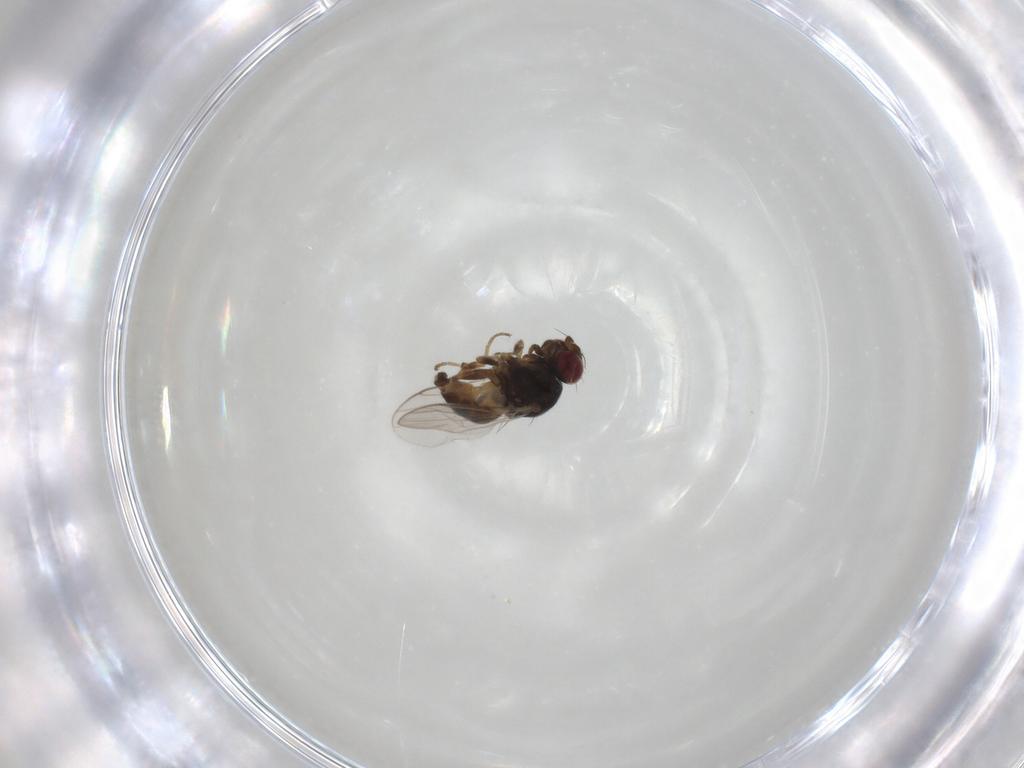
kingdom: Animalia
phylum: Arthropoda
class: Insecta
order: Diptera
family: Chloropidae
